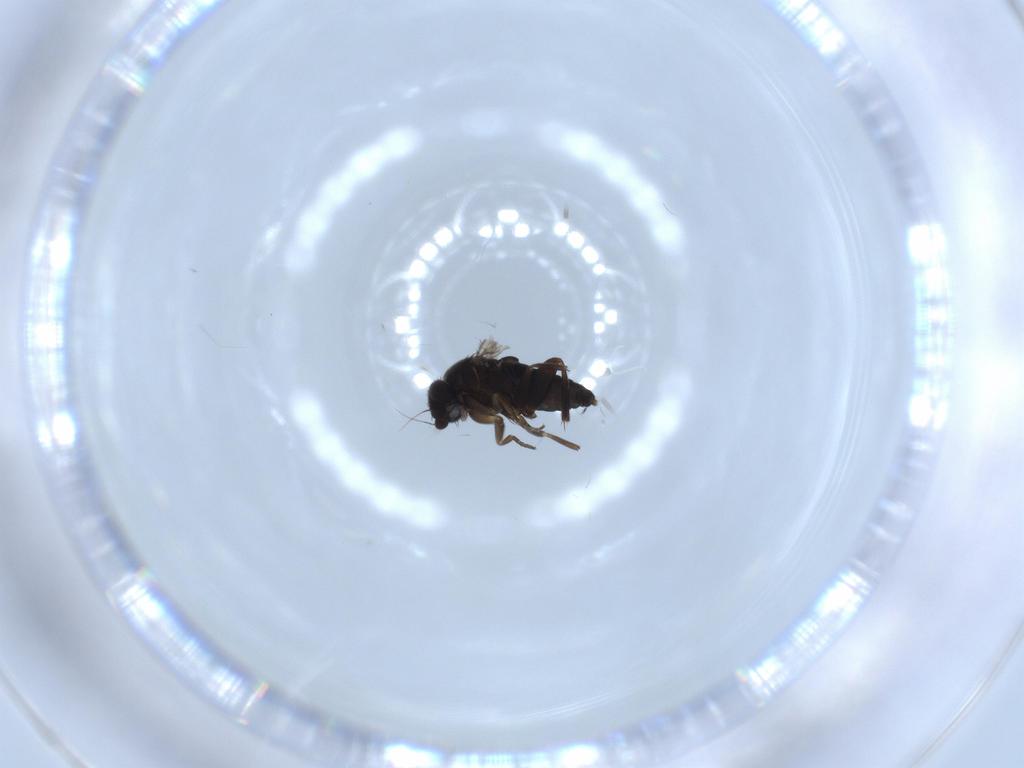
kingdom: Animalia
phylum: Arthropoda
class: Insecta
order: Diptera
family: Phoridae
